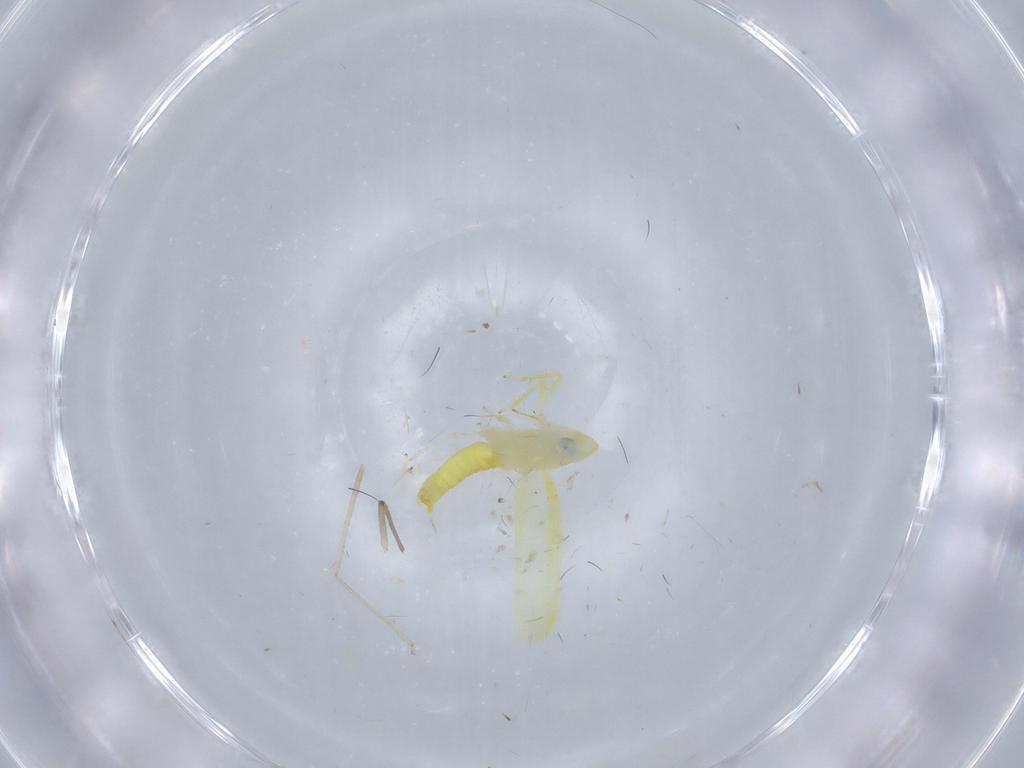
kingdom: Animalia
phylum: Arthropoda
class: Insecta
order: Hemiptera
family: Cicadellidae
